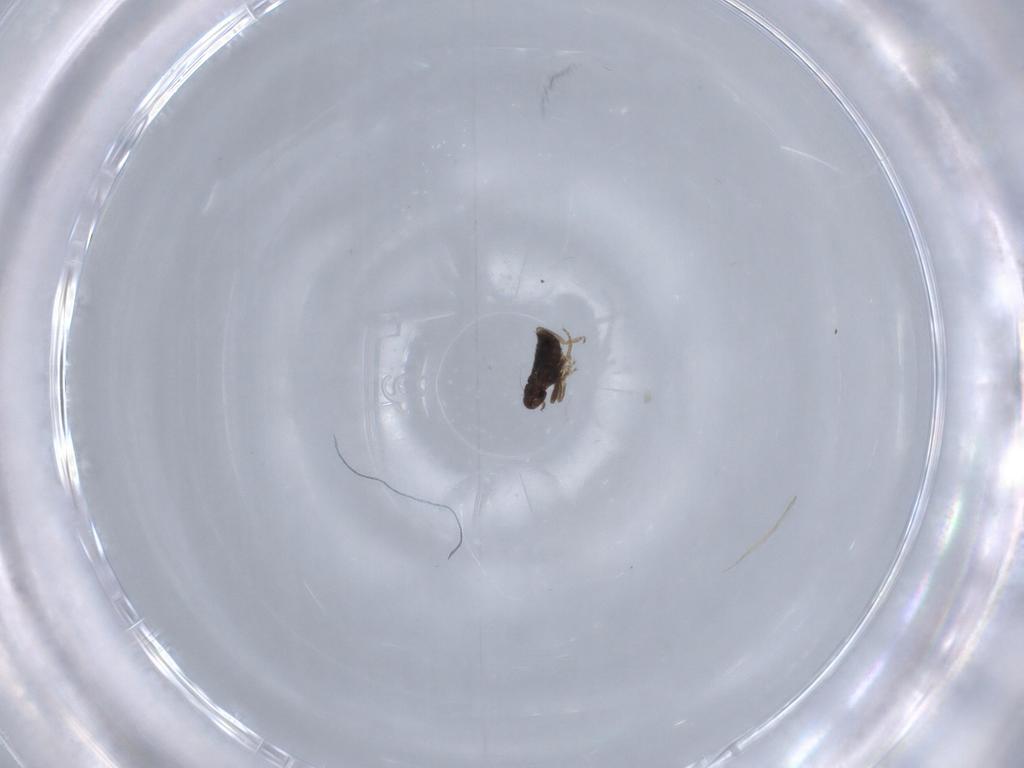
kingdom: Animalia
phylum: Arthropoda
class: Insecta
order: Diptera
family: Phoridae
